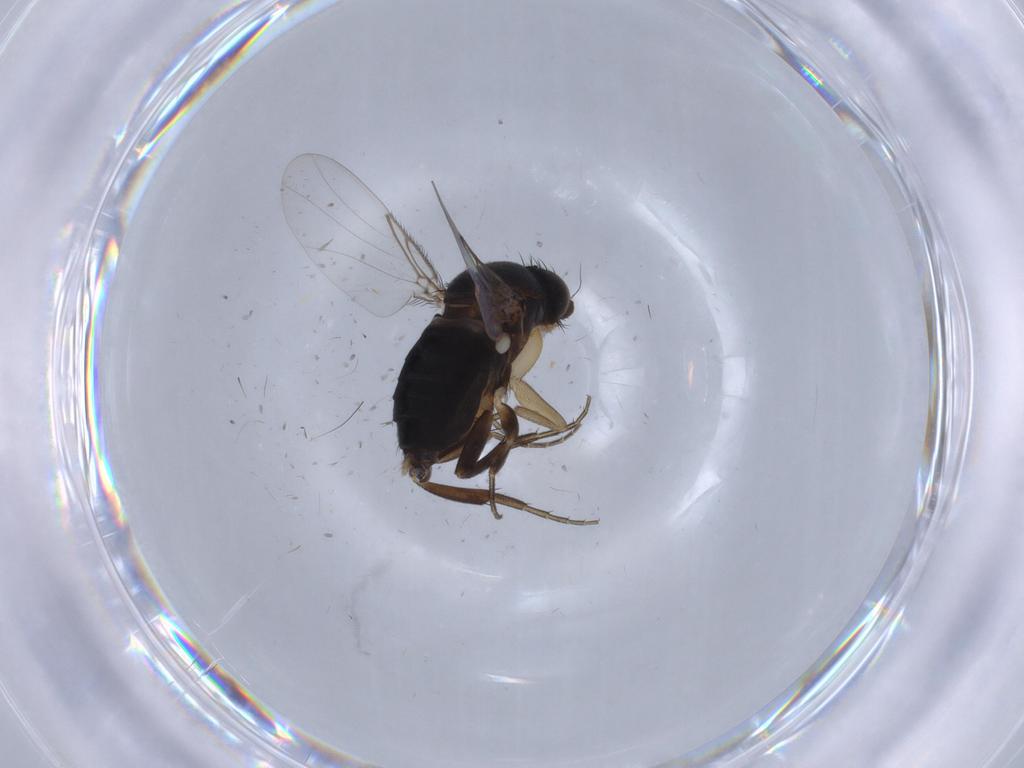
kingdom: Animalia
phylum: Arthropoda
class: Insecta
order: Diptera
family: Phoridae
